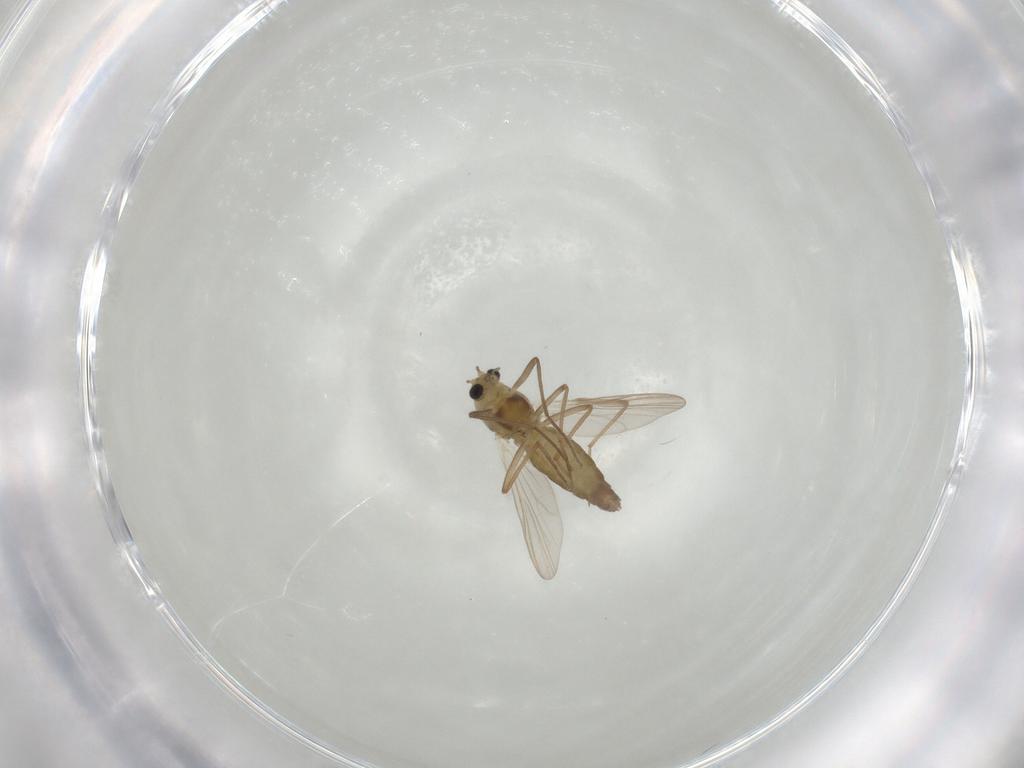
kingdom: Animalia
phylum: Arthropoda
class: Insecta
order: Diptera
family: Chironomidae
